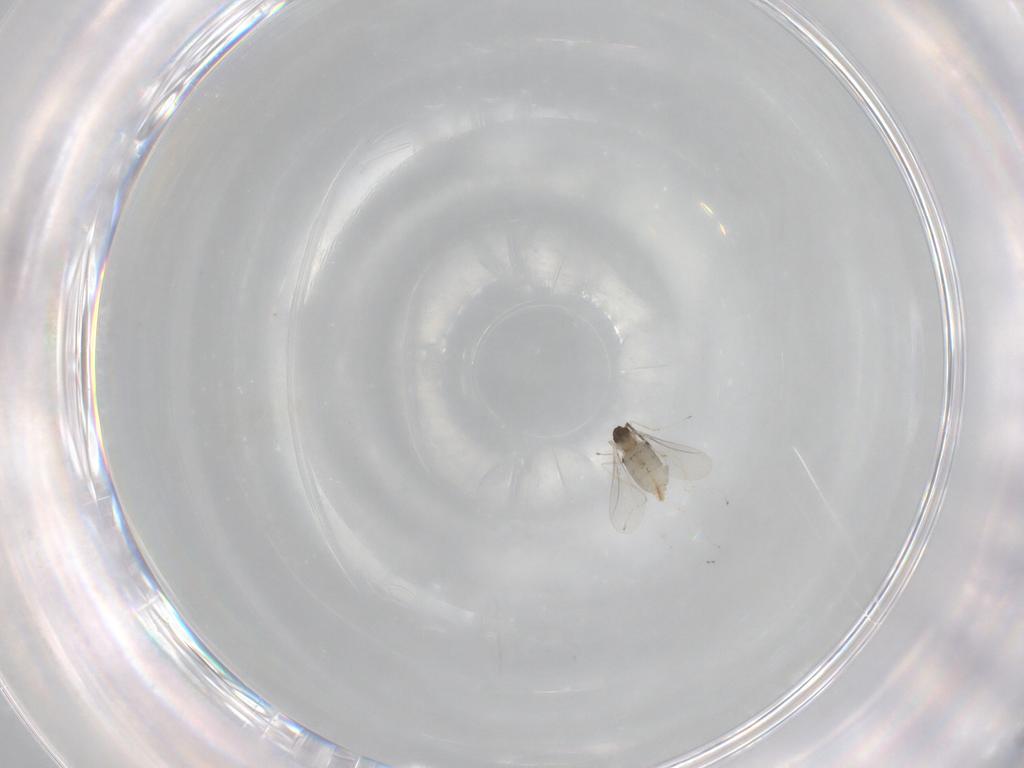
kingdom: Animalia
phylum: Arthropoda
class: Insecta
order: Diptera
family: Cecidomyiidae
